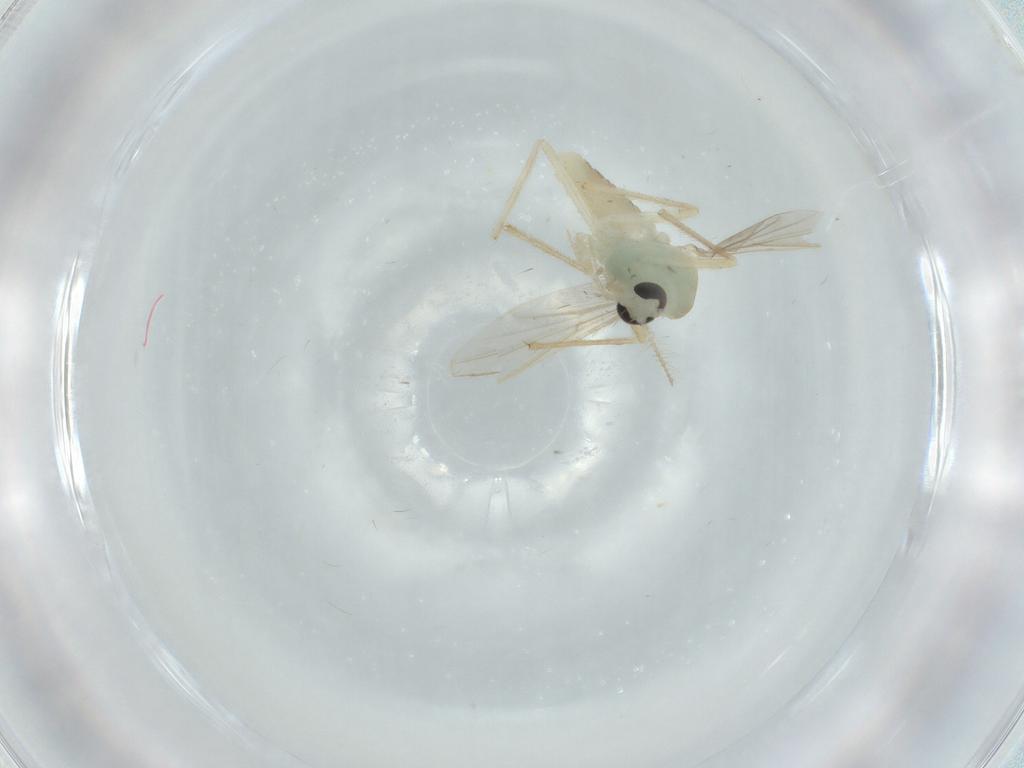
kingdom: Animalia
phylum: Arthropoda
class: Insecta
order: Diptera
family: Chironomidae
